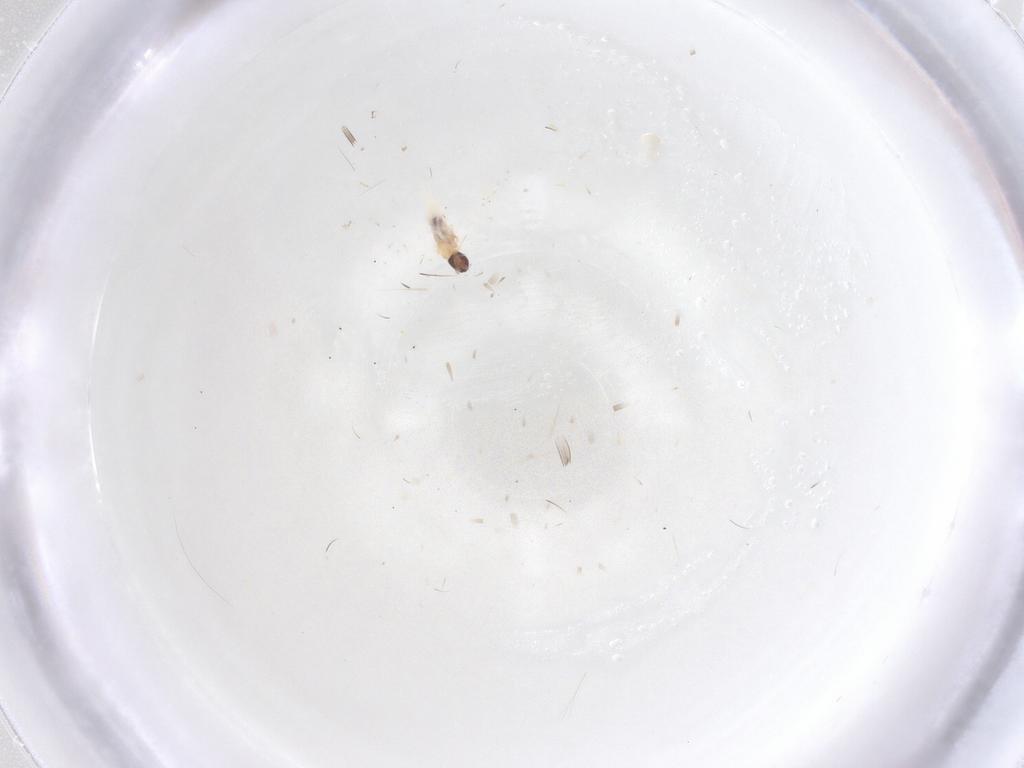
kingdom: Animalia
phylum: Arthropoda
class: Insecta
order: Diptera
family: Cecidomyiidae
